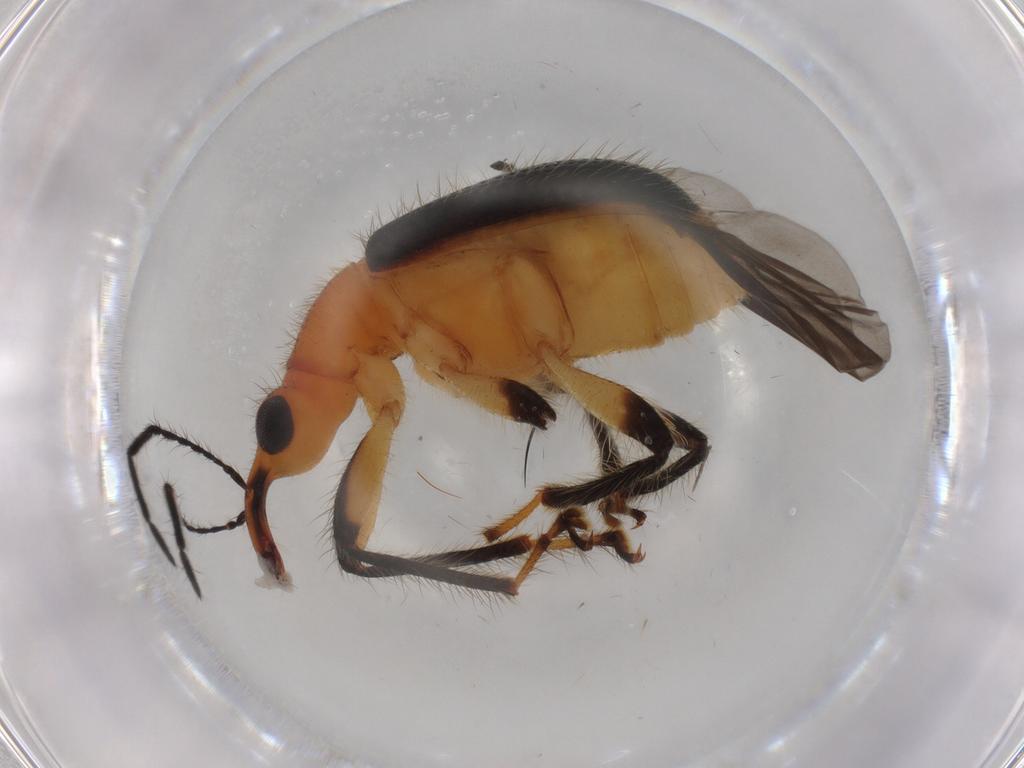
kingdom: Animalia
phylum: Arthropoda
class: Insecta
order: Coleoptera
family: Attelabidae
